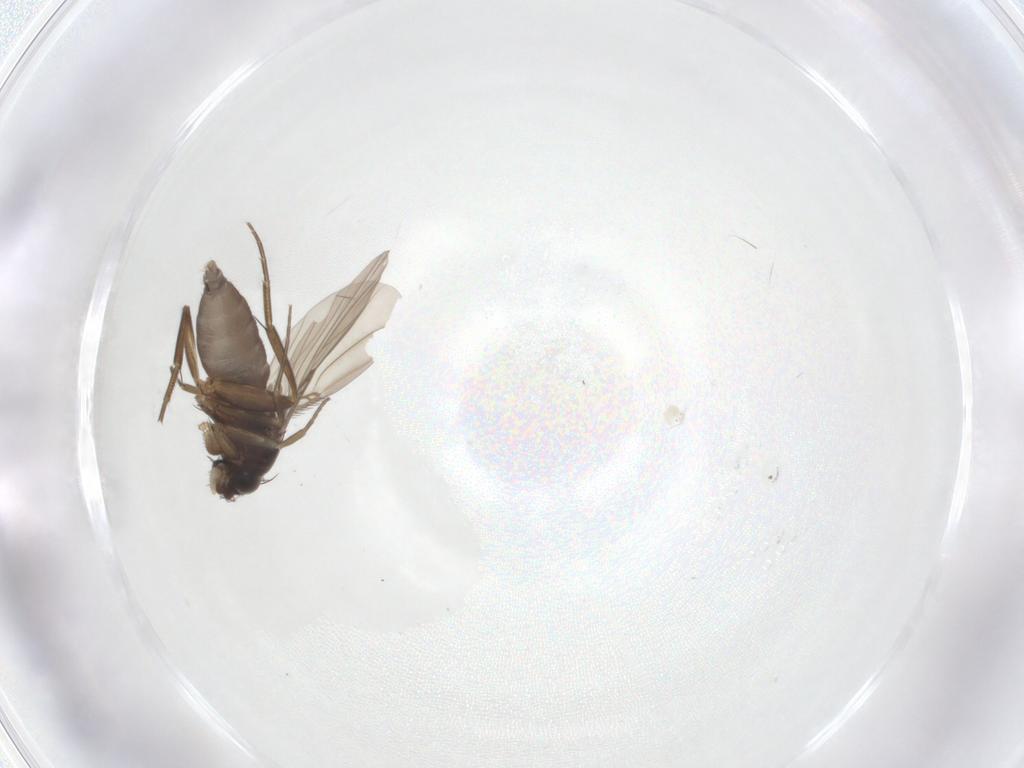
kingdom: Animalia
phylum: Arthropoda
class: Insecta
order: Diptera
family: Phoridae
